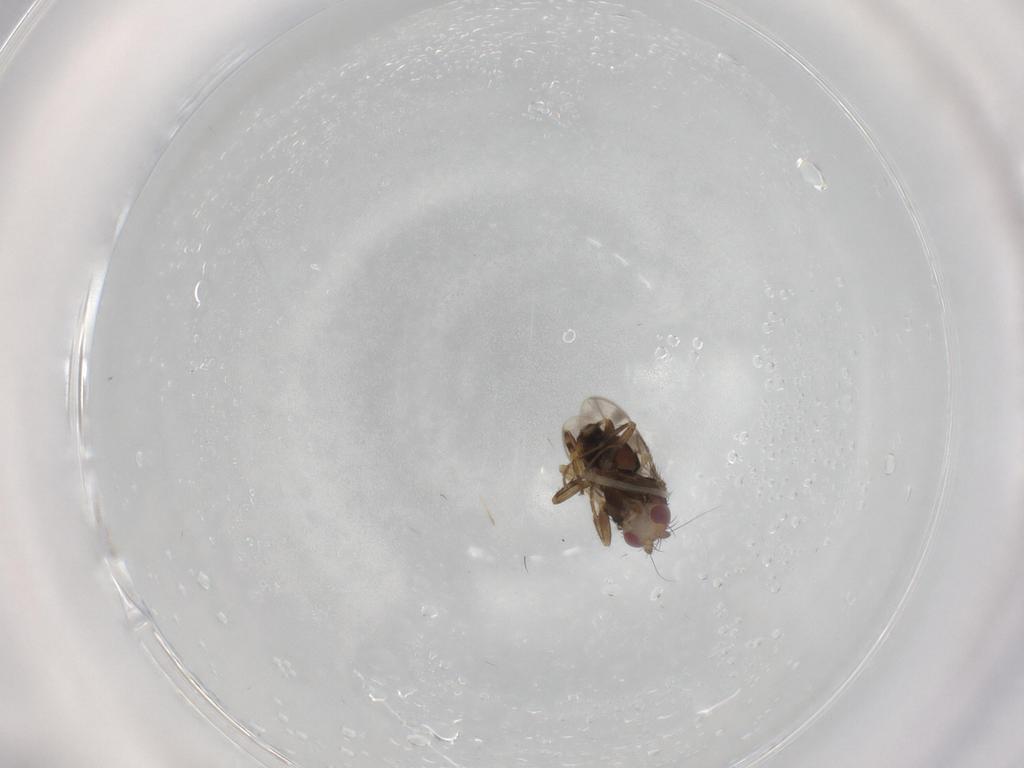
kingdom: Animalia
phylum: Arthropoda
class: Insecta
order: Diptera
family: Sphaeroceridae
